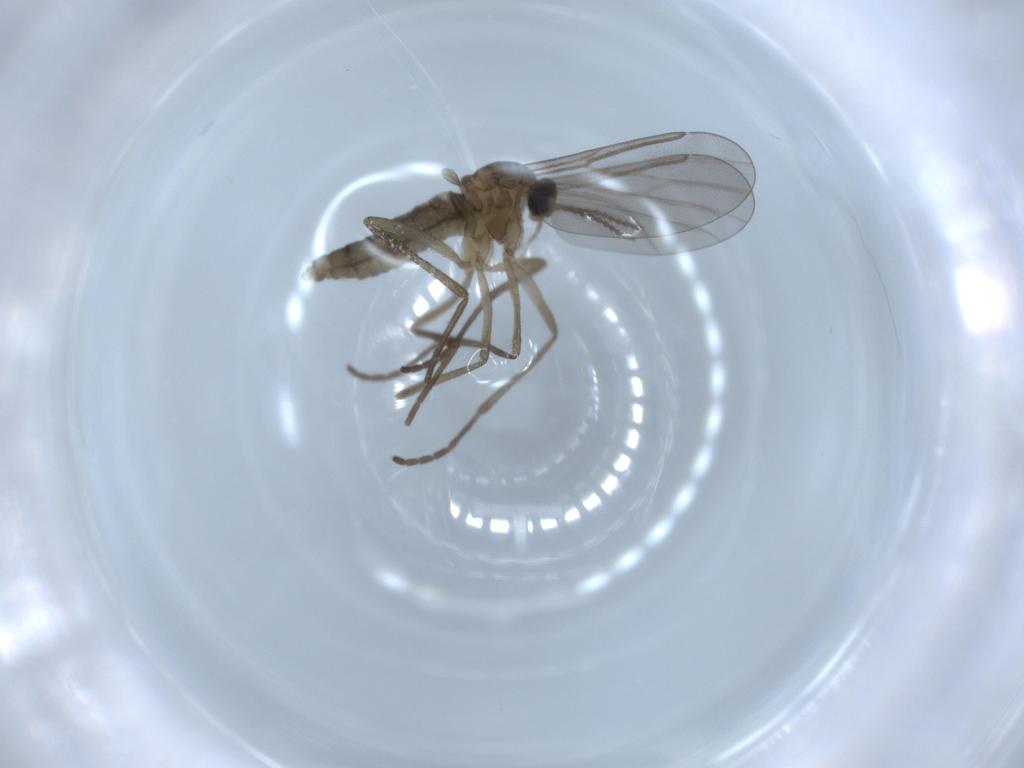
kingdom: Animalia
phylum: Arthropoda
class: Insecta
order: Diptera
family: Cecidomyiidae
